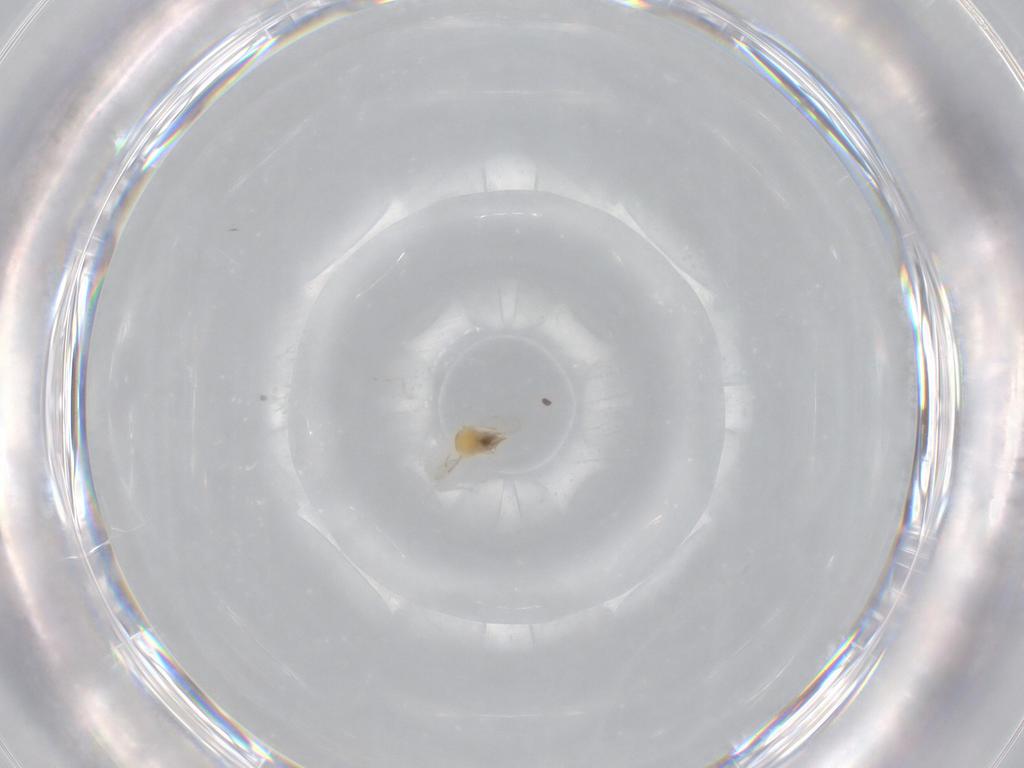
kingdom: Animalia
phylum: Arthropoda
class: Insecta
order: Hymenoptera
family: Braconidae
